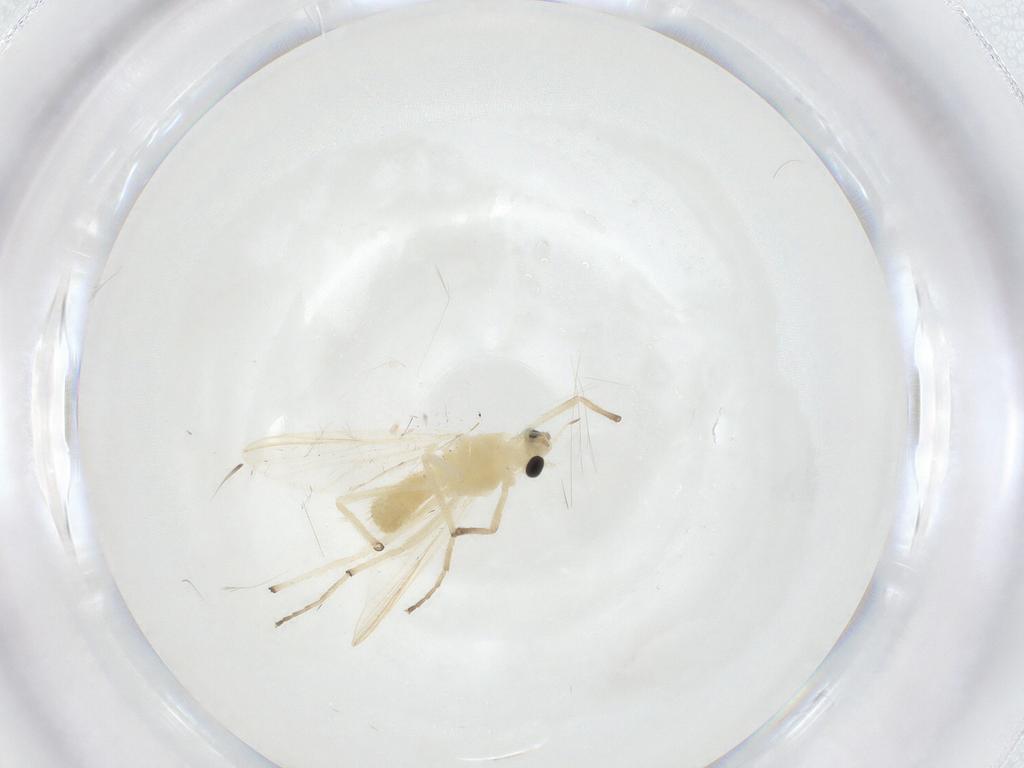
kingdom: Animalia
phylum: Arthropoda
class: Insecta
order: Diptera
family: Chironomidae
